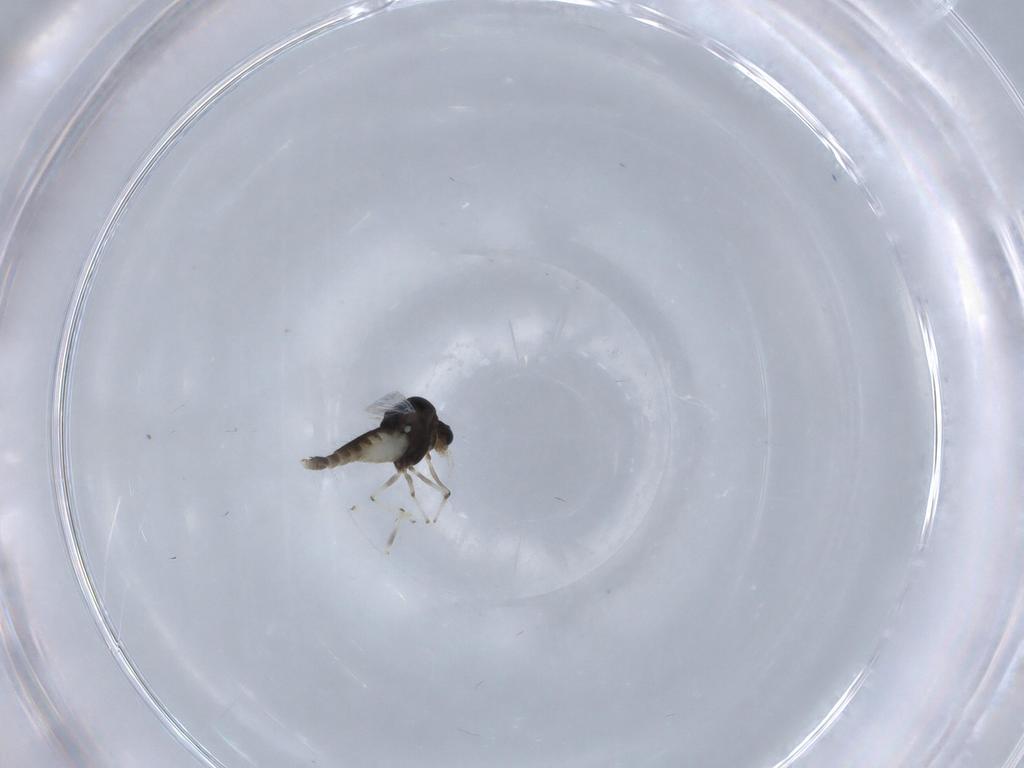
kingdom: Animalia
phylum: Arthropoda
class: Insecta
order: Diptera
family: Chironomidae
